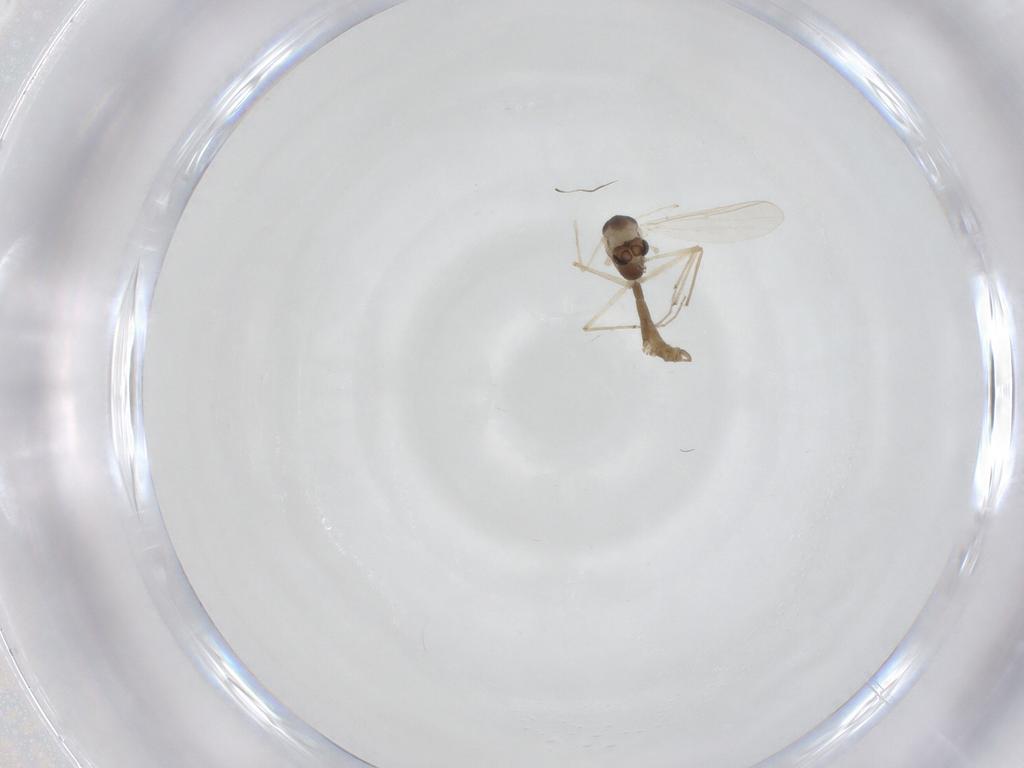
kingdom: Animalia
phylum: Arthropoda
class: Insecta
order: Diptera
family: Cecidomyiidae
